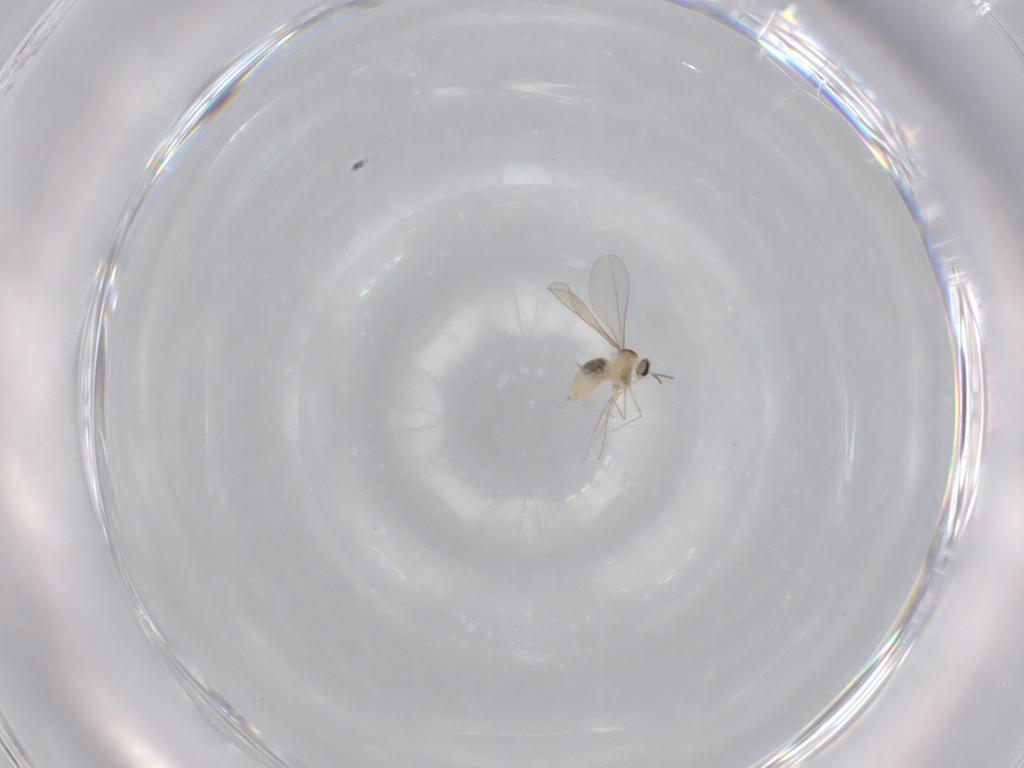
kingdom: Animalia
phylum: Arthropoda
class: Insecta
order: Diptera
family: Cecidomyiidae
